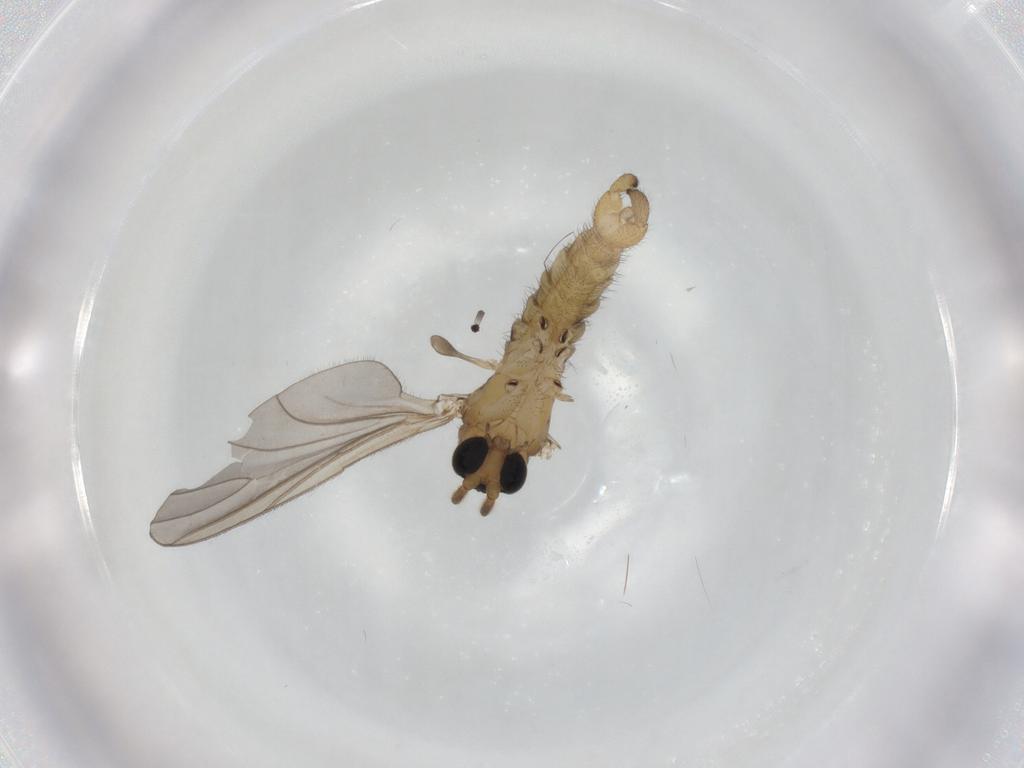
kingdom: Animalia
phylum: Arthropoda
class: Insecta
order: Diptera
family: Sciaridae
